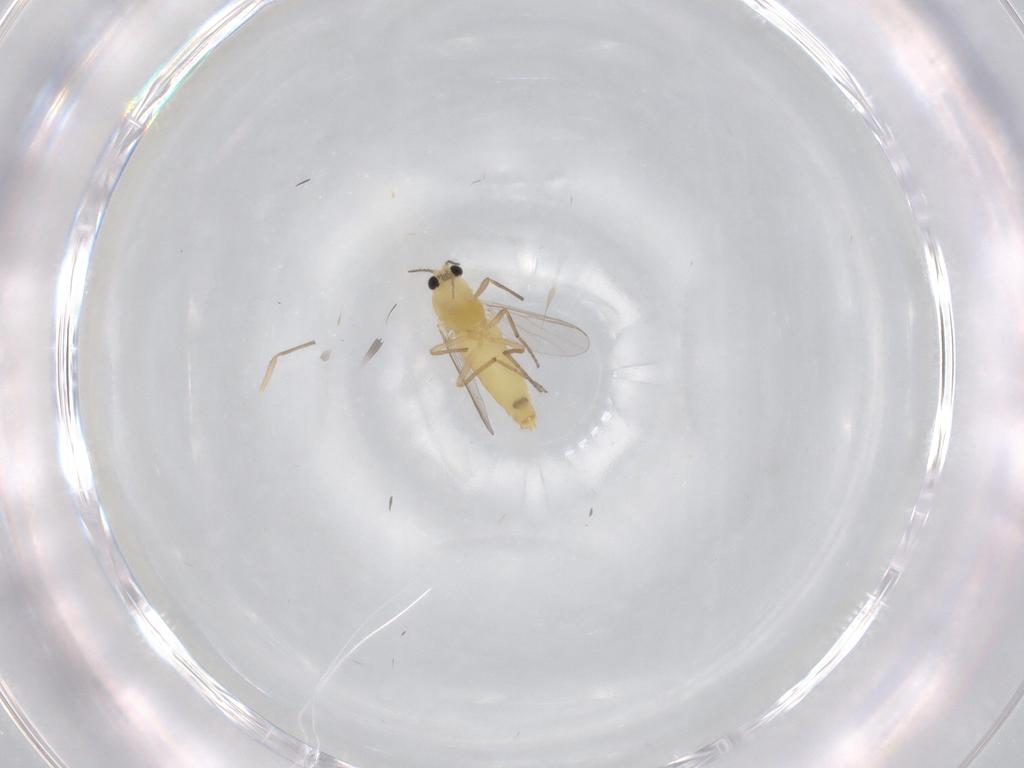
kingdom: Animalia
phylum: Arthropoda
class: Insecta
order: Diptera
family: Chironomidae
